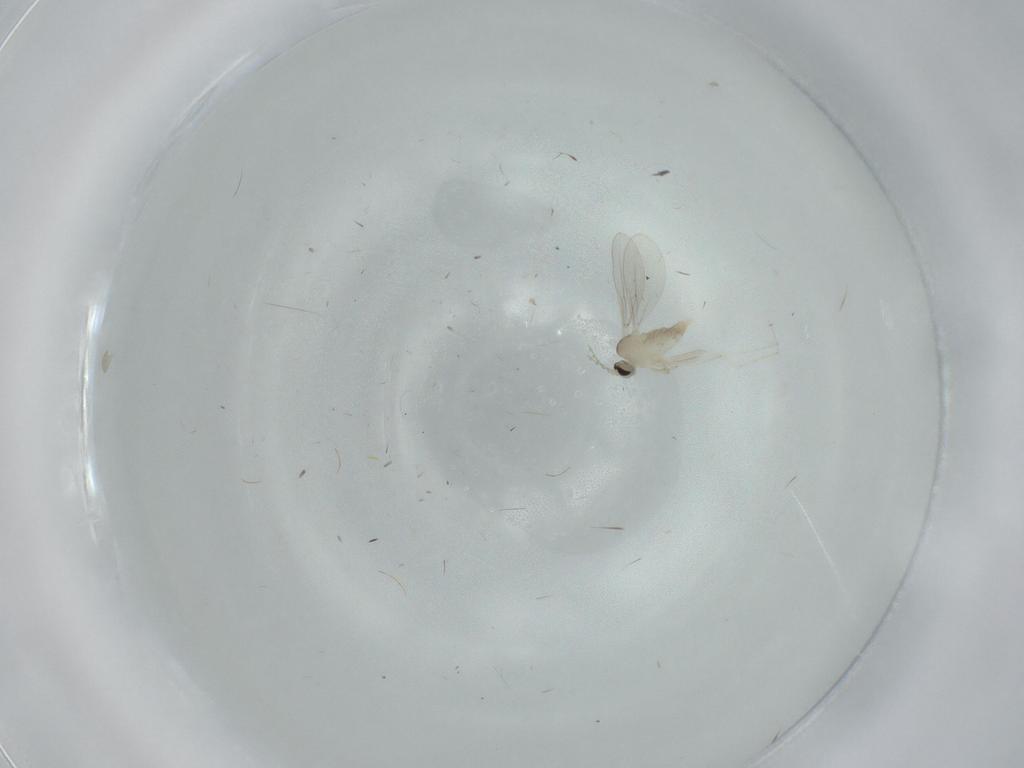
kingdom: Animalia
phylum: Arthropoda
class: Insecta
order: Diptera
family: Cecidomyiidae
